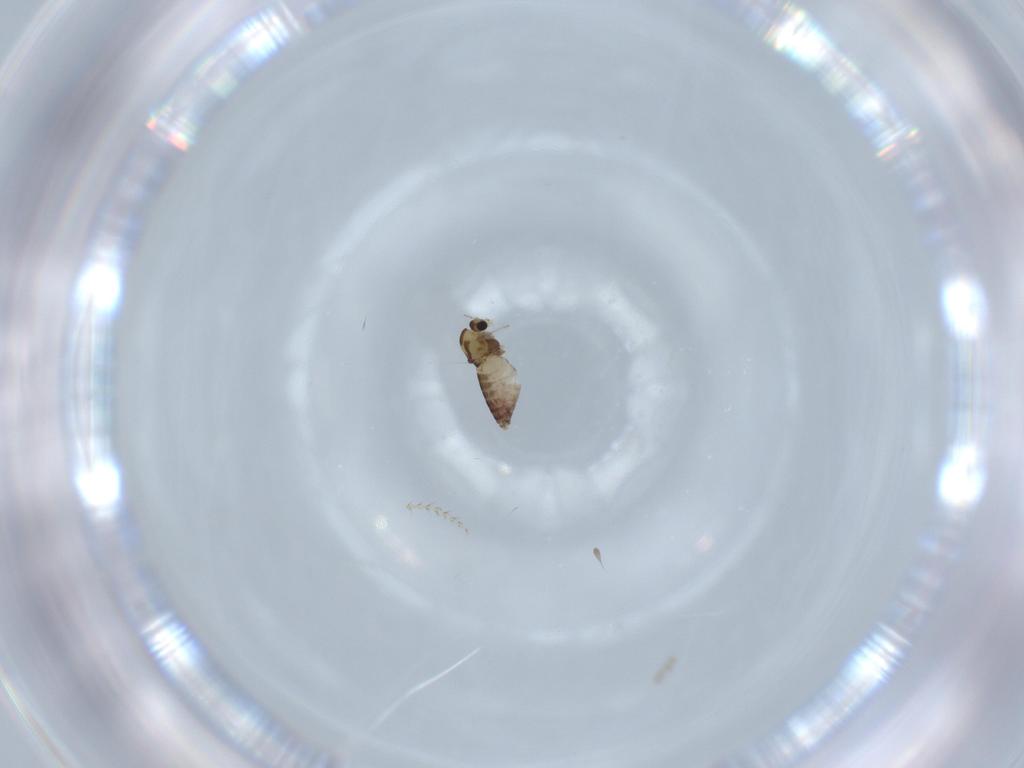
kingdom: Animalia
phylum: Arthropoda
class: Insecta
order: Diptera
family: Chironomidae
